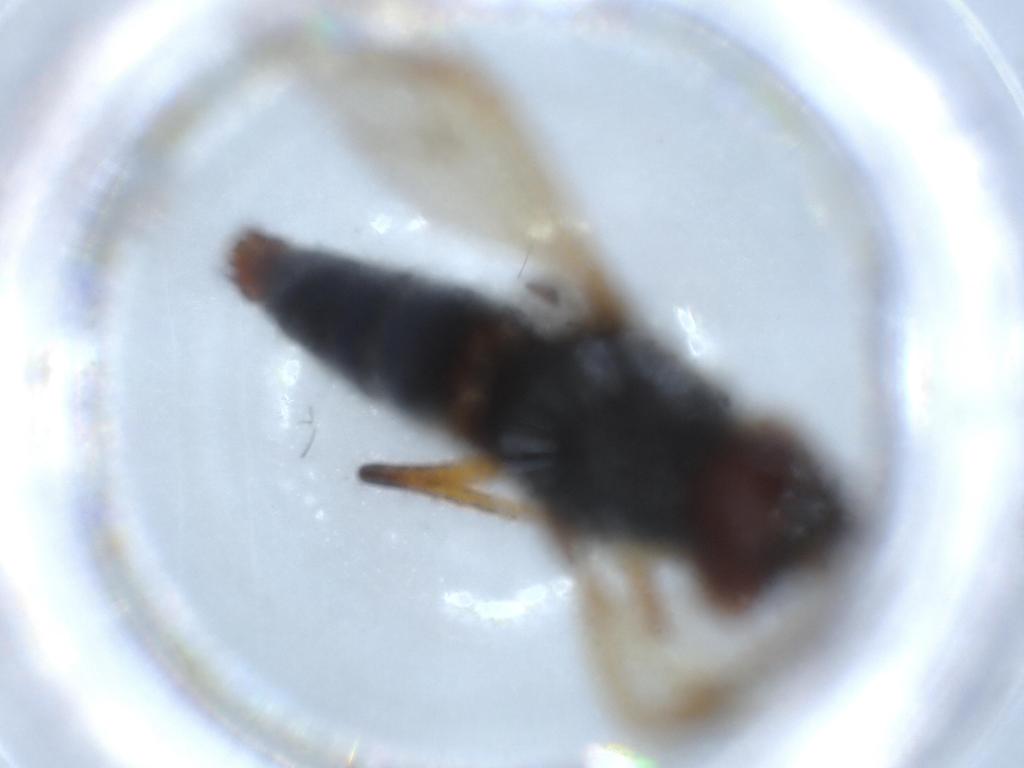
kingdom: Animalia
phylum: Arthropoda
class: Insecta
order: Diptera
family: Therevidae
